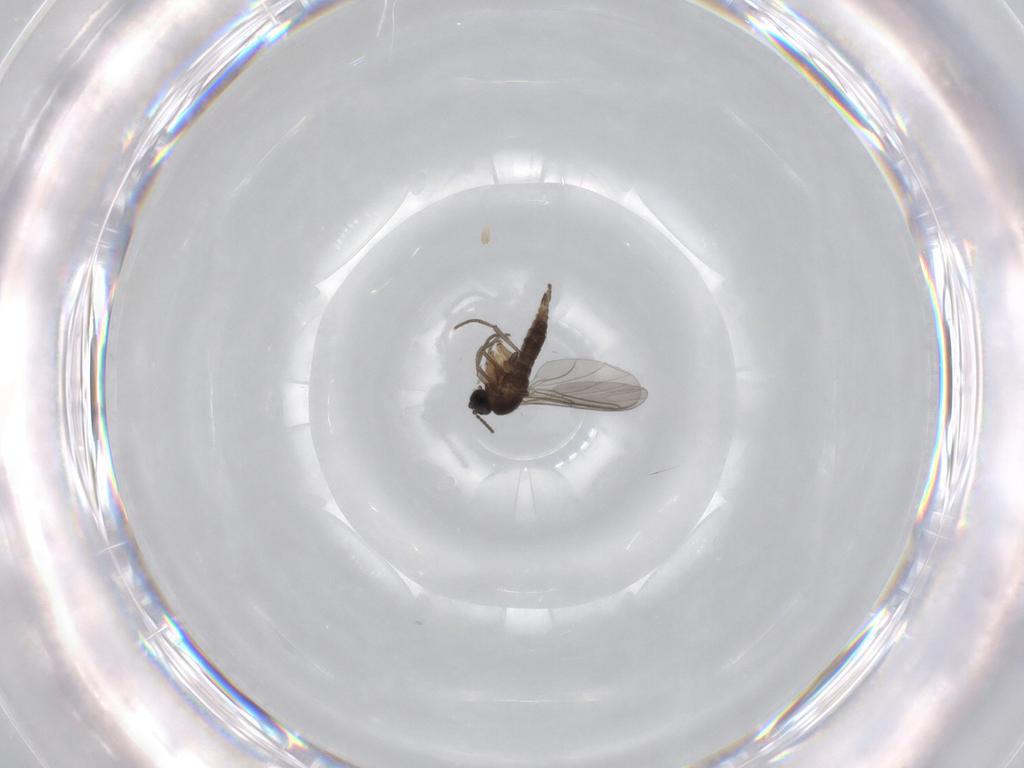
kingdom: Animalia
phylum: Arthropoda
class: Insecta
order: Diptera
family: Sciaridae
